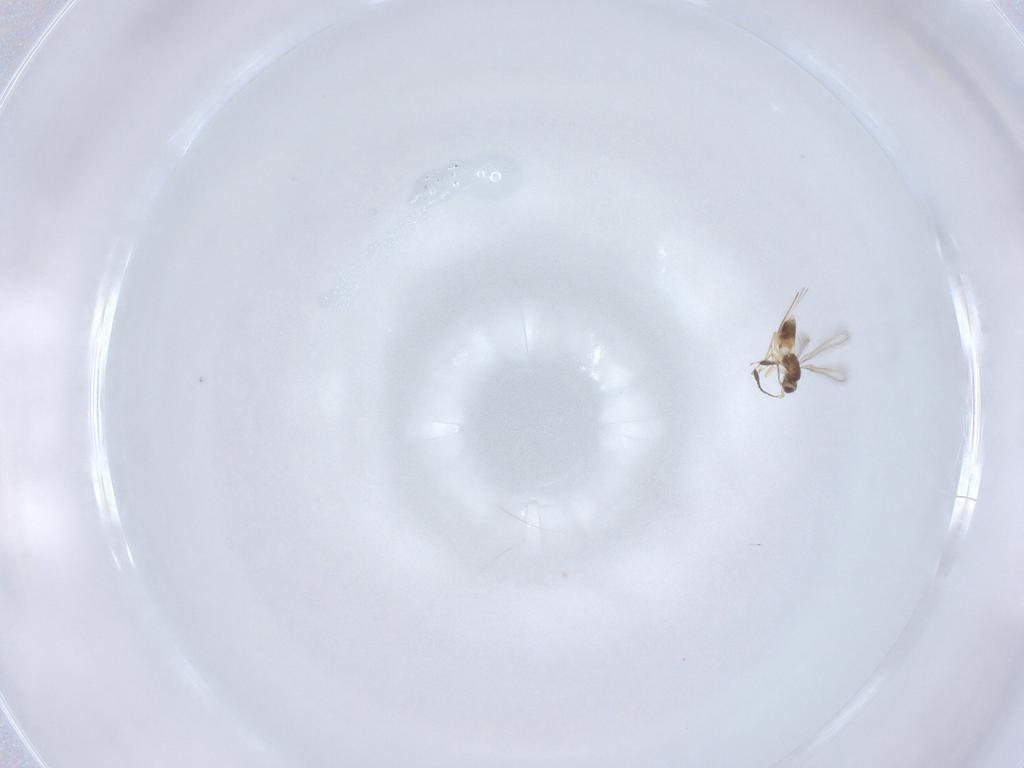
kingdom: Animalia
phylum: Arthropoda
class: Insecta
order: Hymenoptera
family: Mymaridae
